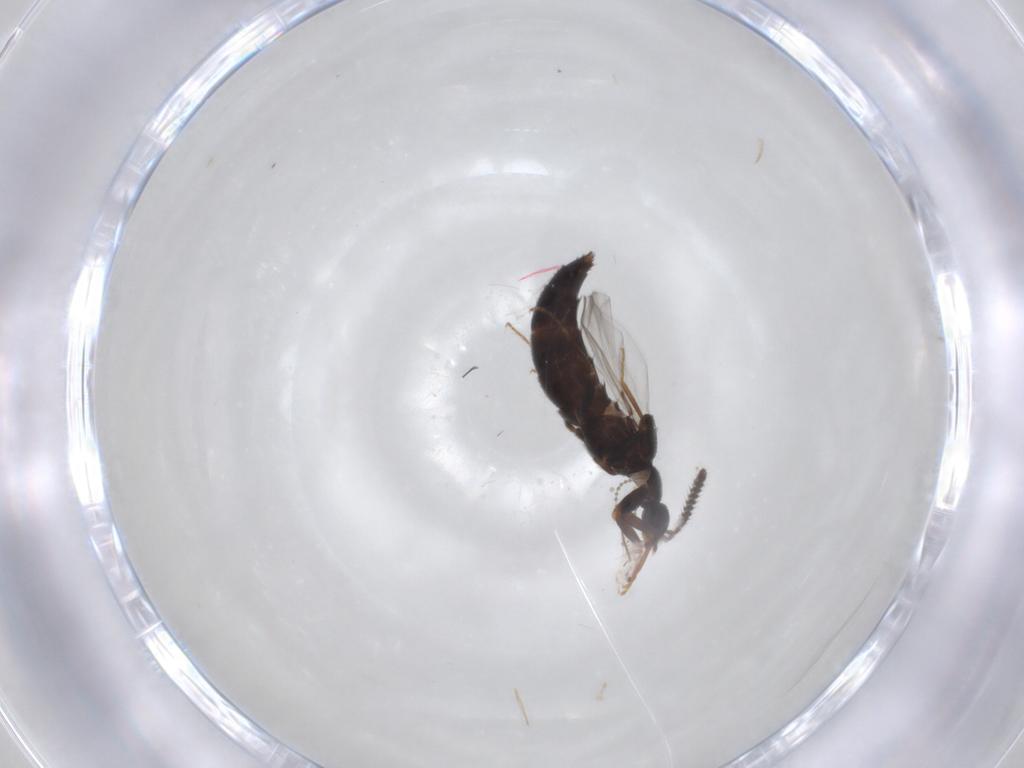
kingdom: Animalia
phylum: Arthropoda
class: Insecta
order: Coleoptera
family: Staphylinidae
